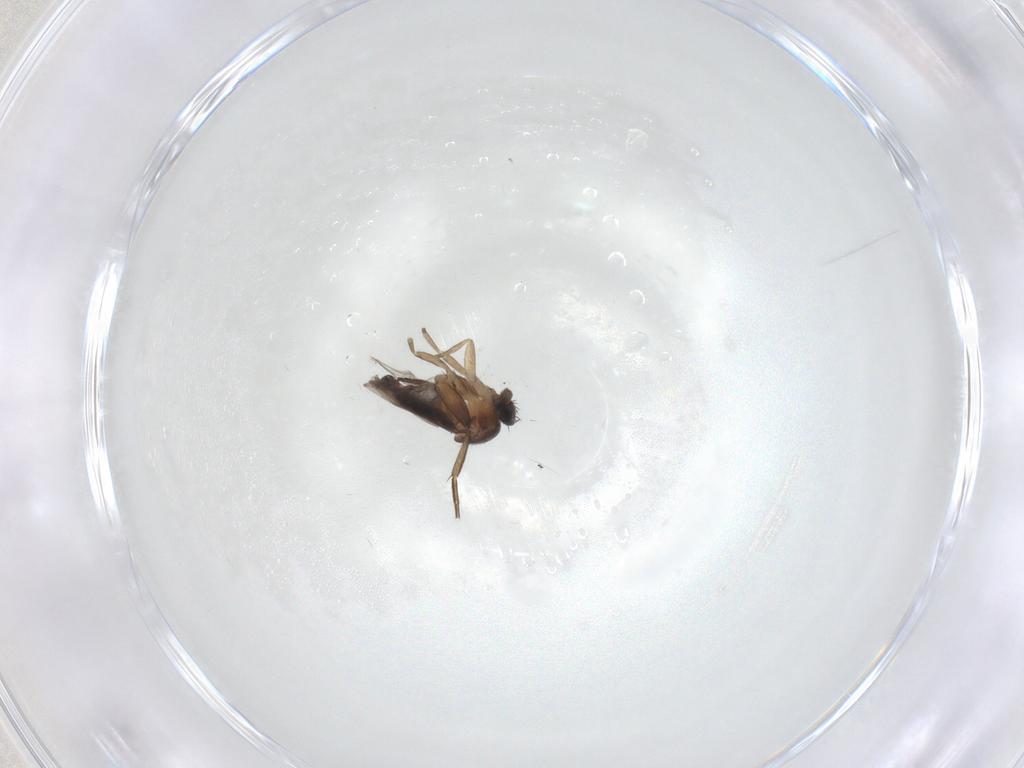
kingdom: Animalia
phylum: Arthropoda
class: Insecta
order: Diptera
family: Phoridae
